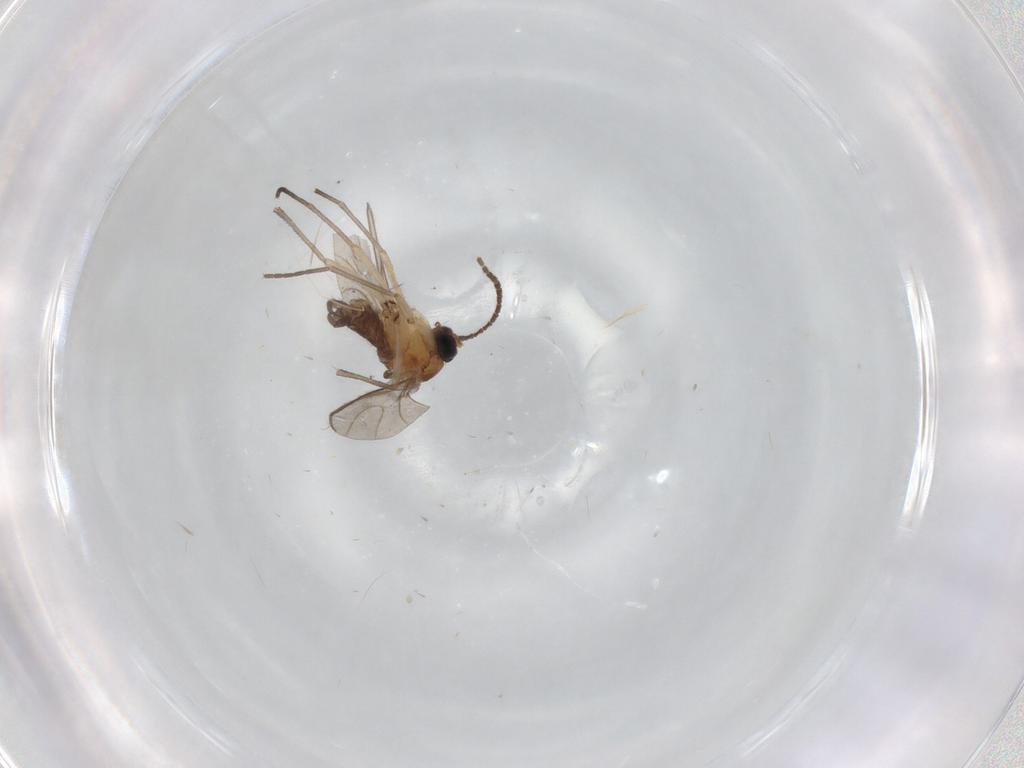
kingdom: Animalia
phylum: Arthropoda
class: Insecta
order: Diptera
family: Sciaridae
